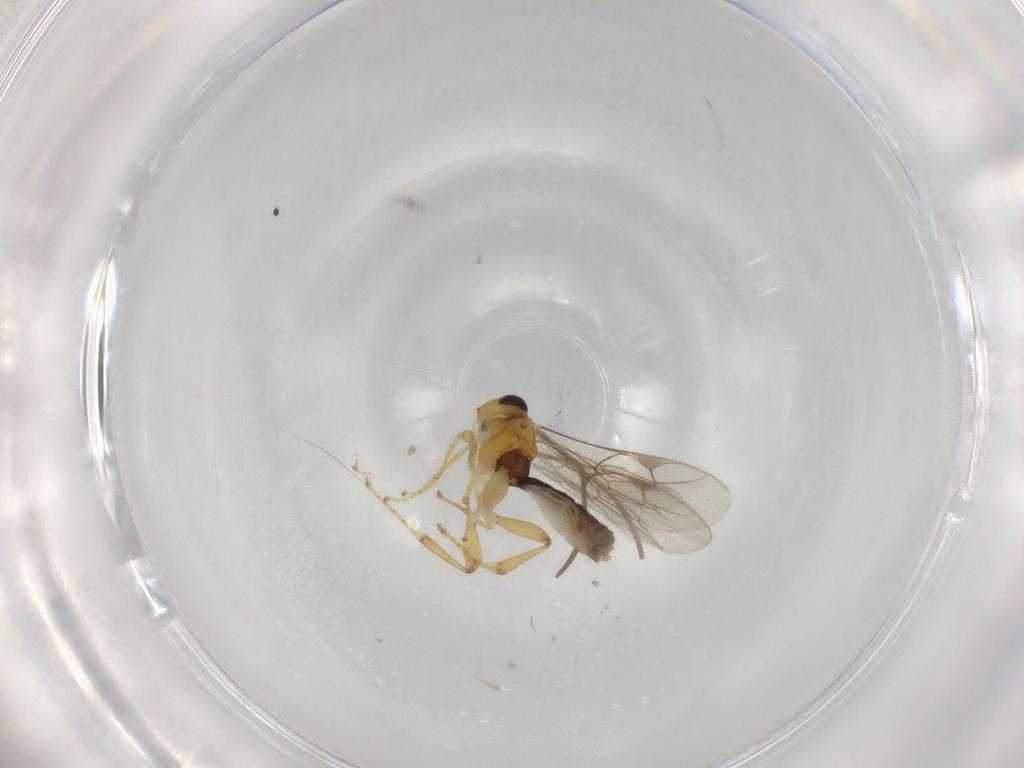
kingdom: Animalia
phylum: Arthropoda
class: Insecta
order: Hymenoptera
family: Ichneumonidae
